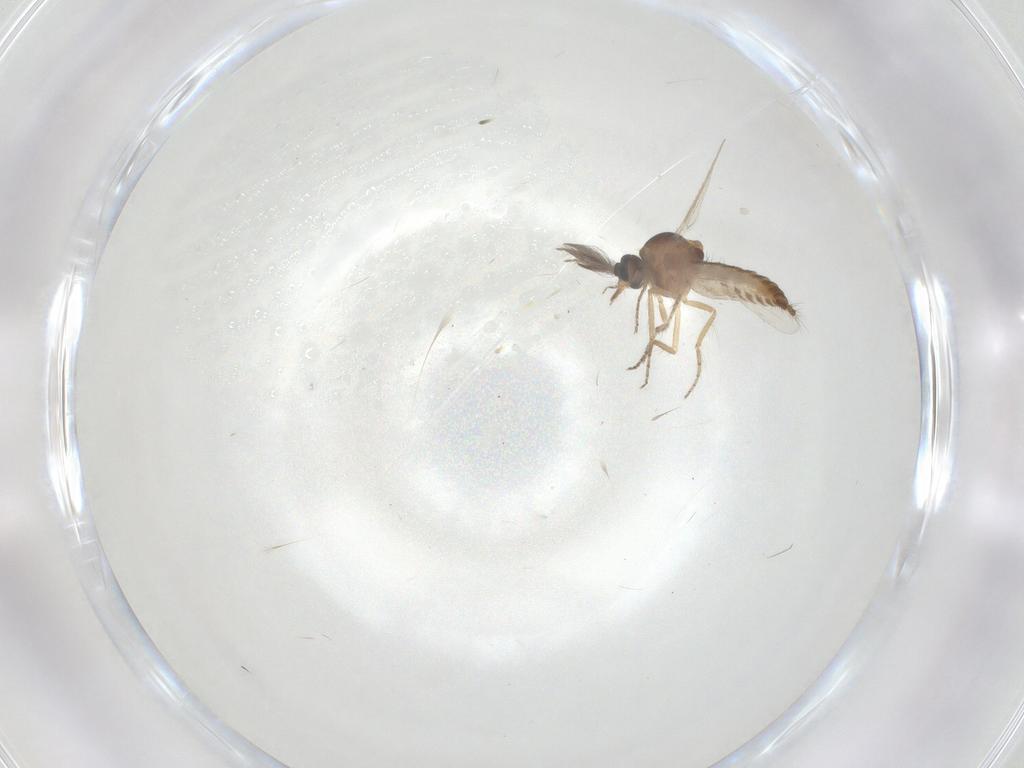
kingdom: Animalia
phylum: Arthropoda
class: Insecta
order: Diptera
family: Ceratopogonidae
